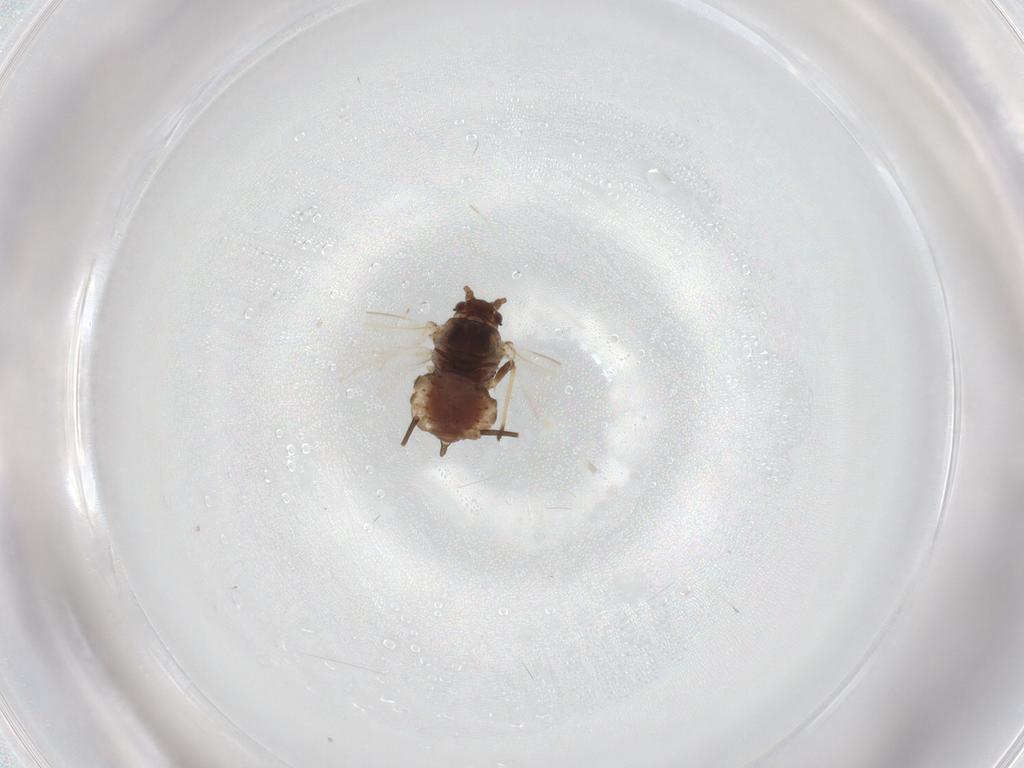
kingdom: Animalia
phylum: Arthropoda
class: Insecta
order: Hemiptera
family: Aphididae
